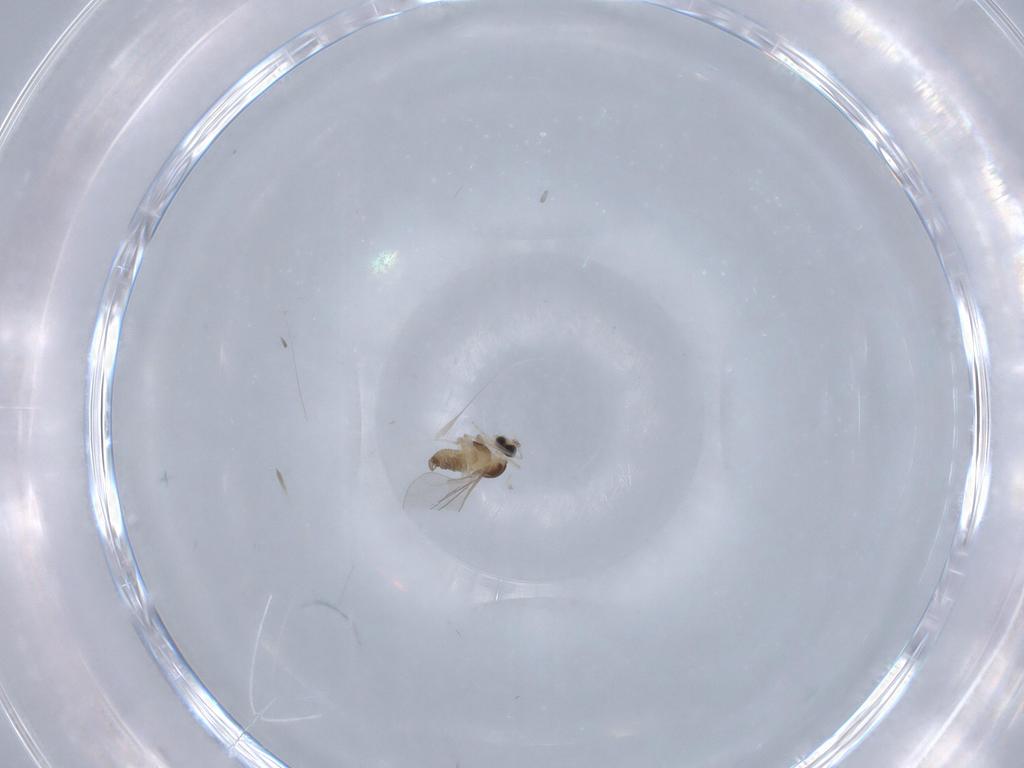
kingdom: Animalia
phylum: Arthropoda
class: Insecta
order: Diptera
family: Cecidomyiidae
